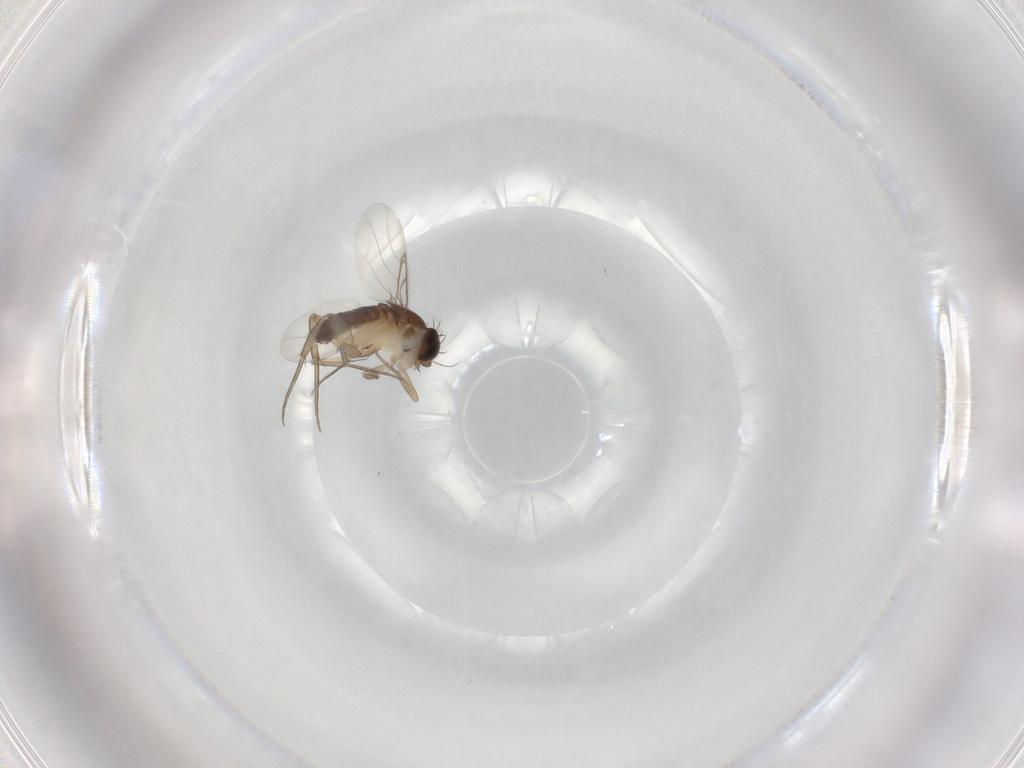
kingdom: Animalia
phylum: Arthropoda
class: Insecta
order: Diptera
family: Phoridae
